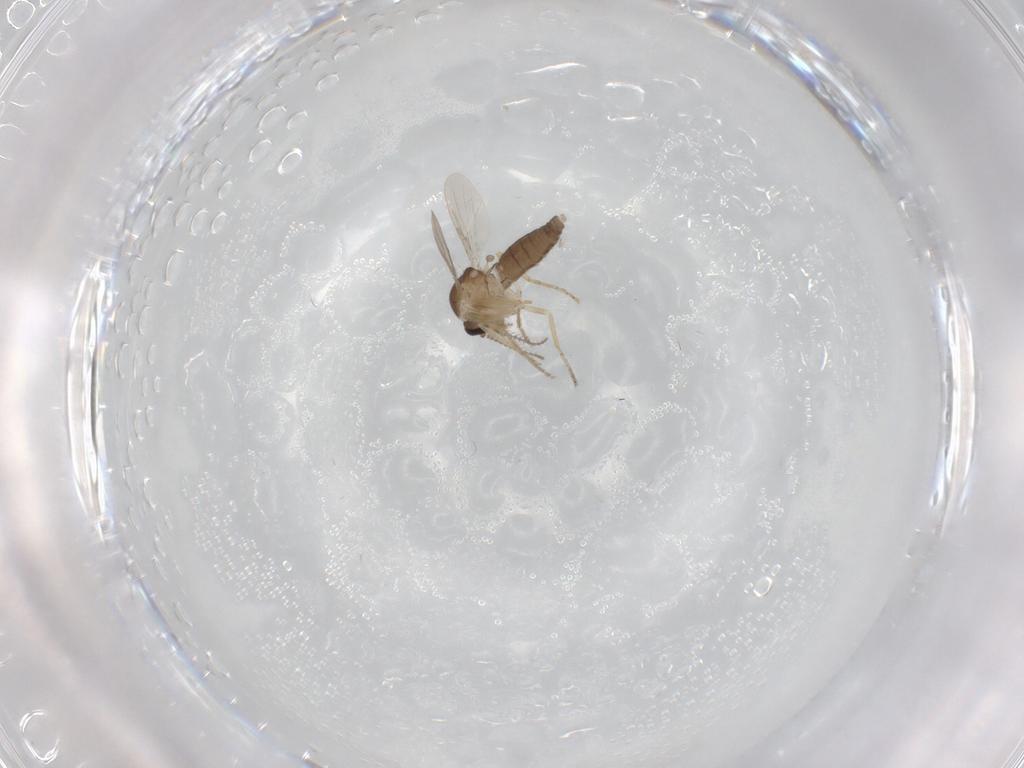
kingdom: Animalia
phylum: Arthropoda
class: Insecta
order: Diptera
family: Ceratopogonidae
